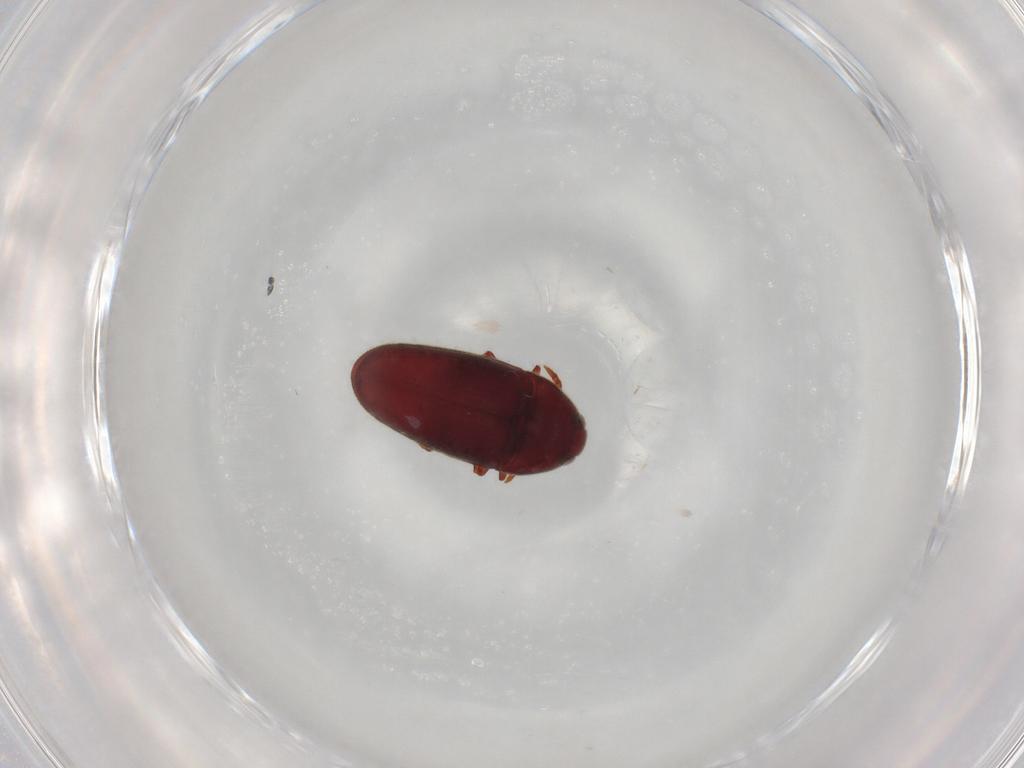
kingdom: Animalia
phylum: Arthropoda
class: Insecta
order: Coleoptera
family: Throscidae
